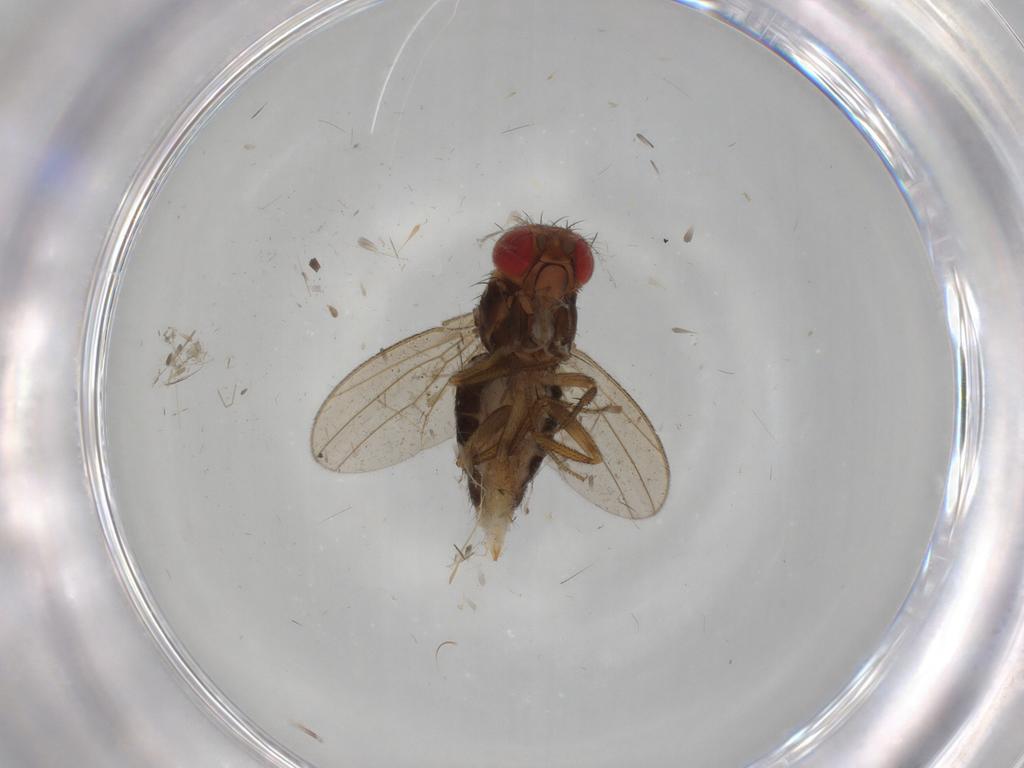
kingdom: Animalia
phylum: Arthropoda
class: Insecta
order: Diptera
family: Drosophilidae
